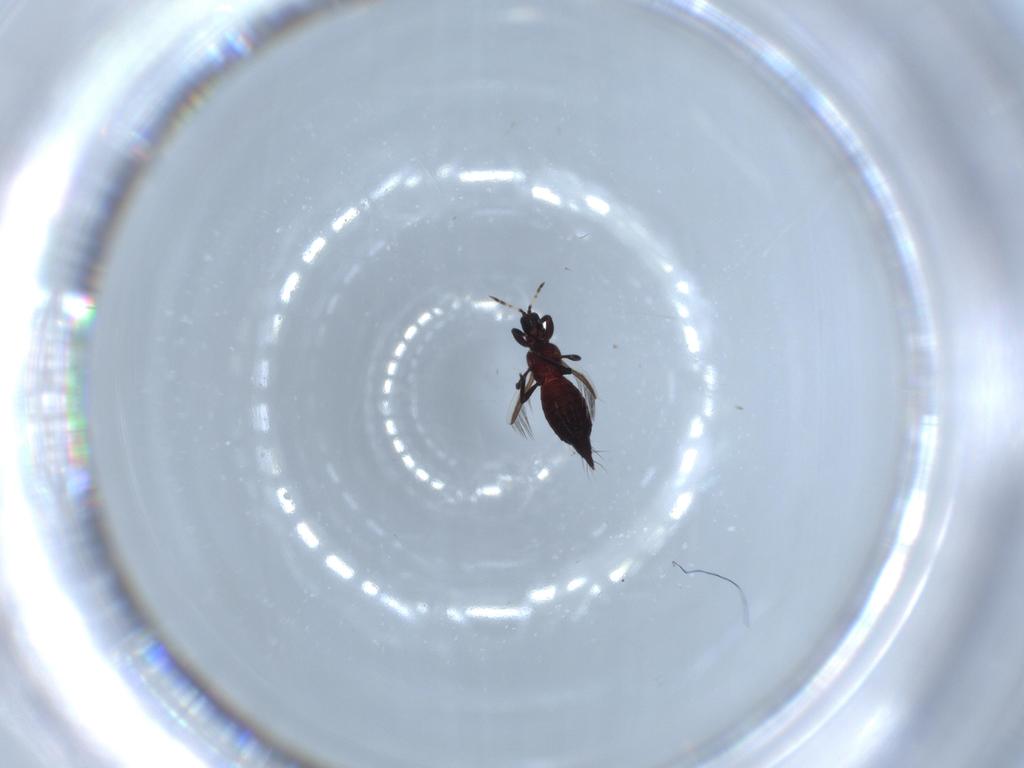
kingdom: Animalia
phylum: Arthropoda
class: Insecta
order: Thysanoptera
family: Aeolothripidae
